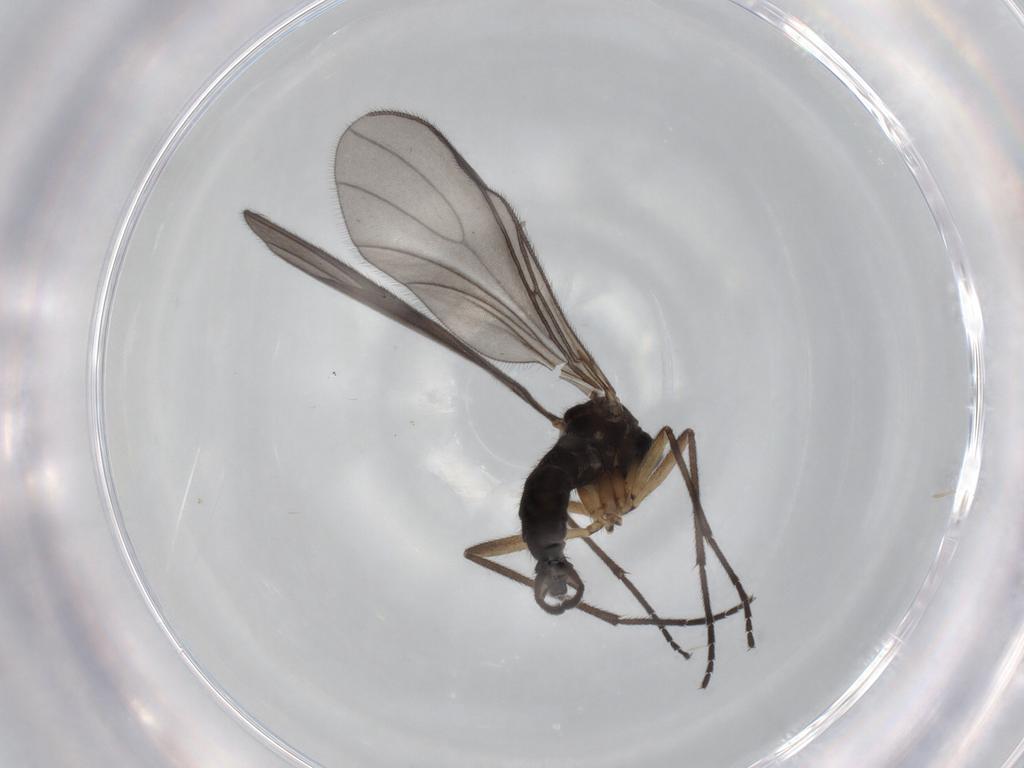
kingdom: Animalia
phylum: Arthropoda
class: Insecta
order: Diptera
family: Sciaridae
